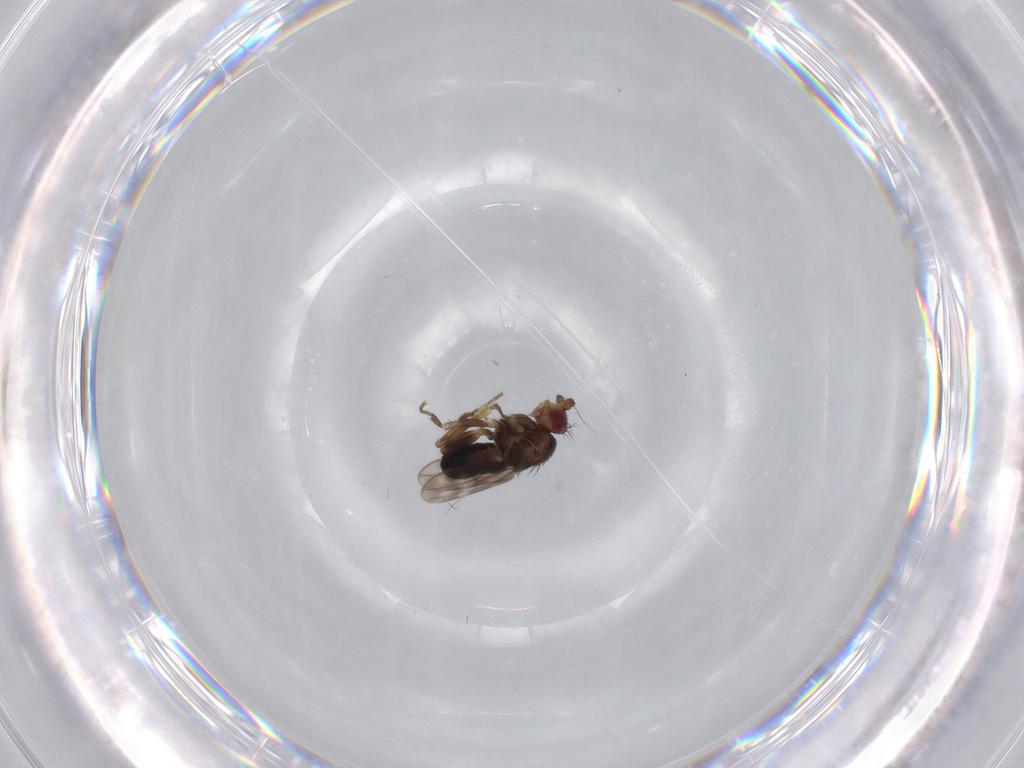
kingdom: Animalia
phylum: Arthropoda
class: Insecta
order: Diptera
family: Sphaeroceridae
